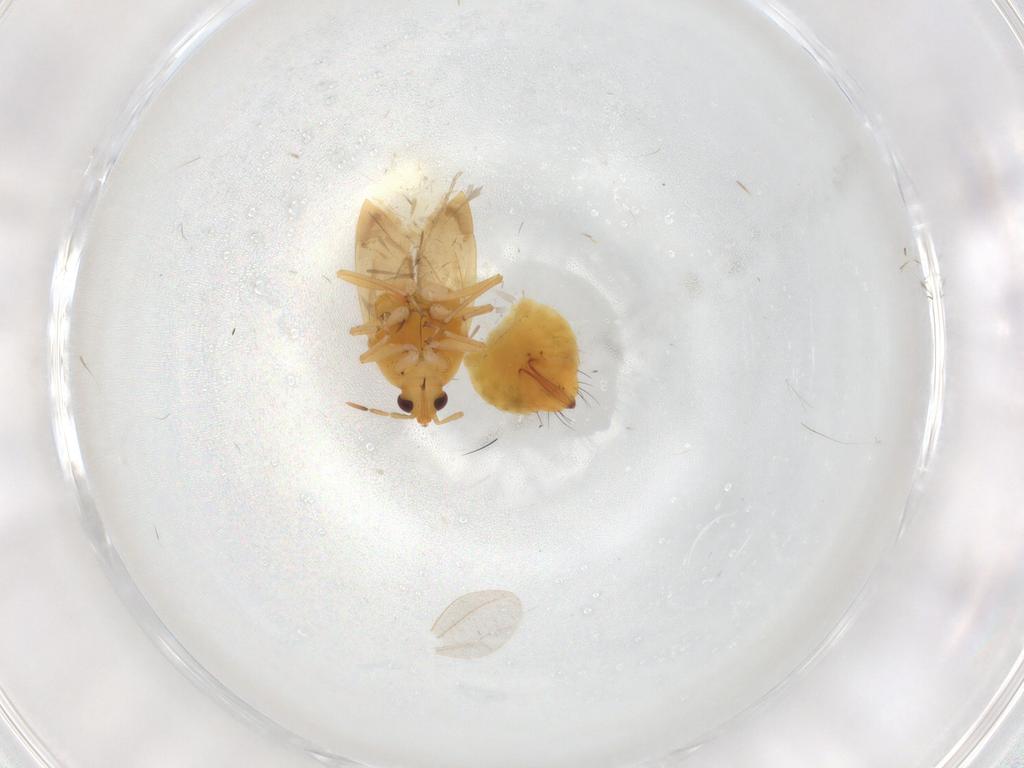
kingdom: Animalia
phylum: Arthropoda
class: Insecta
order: Hemiptera
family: Anthocoridae
